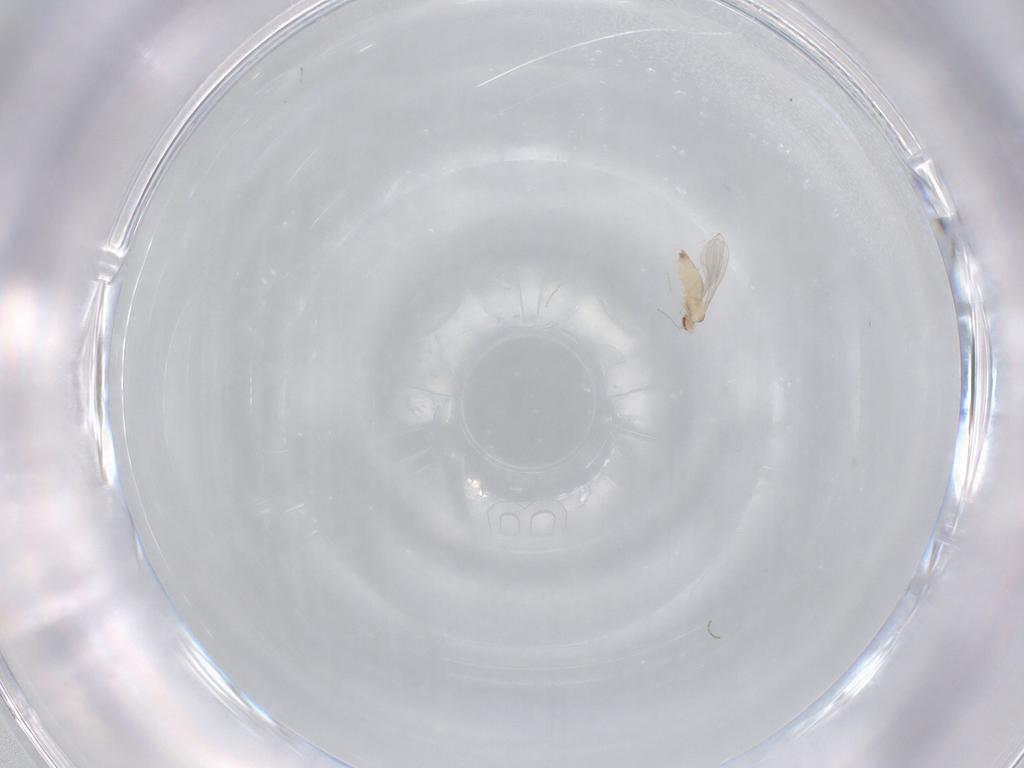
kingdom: Animalia
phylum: Arthropoda
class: Insecta
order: Diptera
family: Cecidomyiidae
